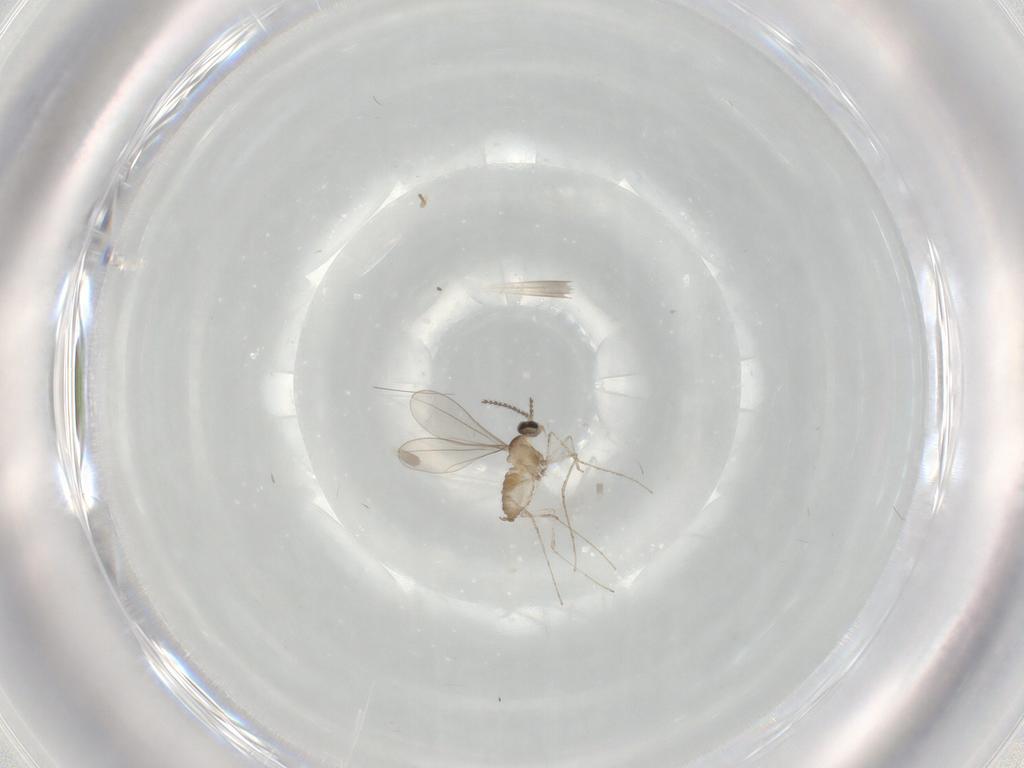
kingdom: Animalia
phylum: Arthropoda
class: Insecta
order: Diptera
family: Cecidomyiidae
